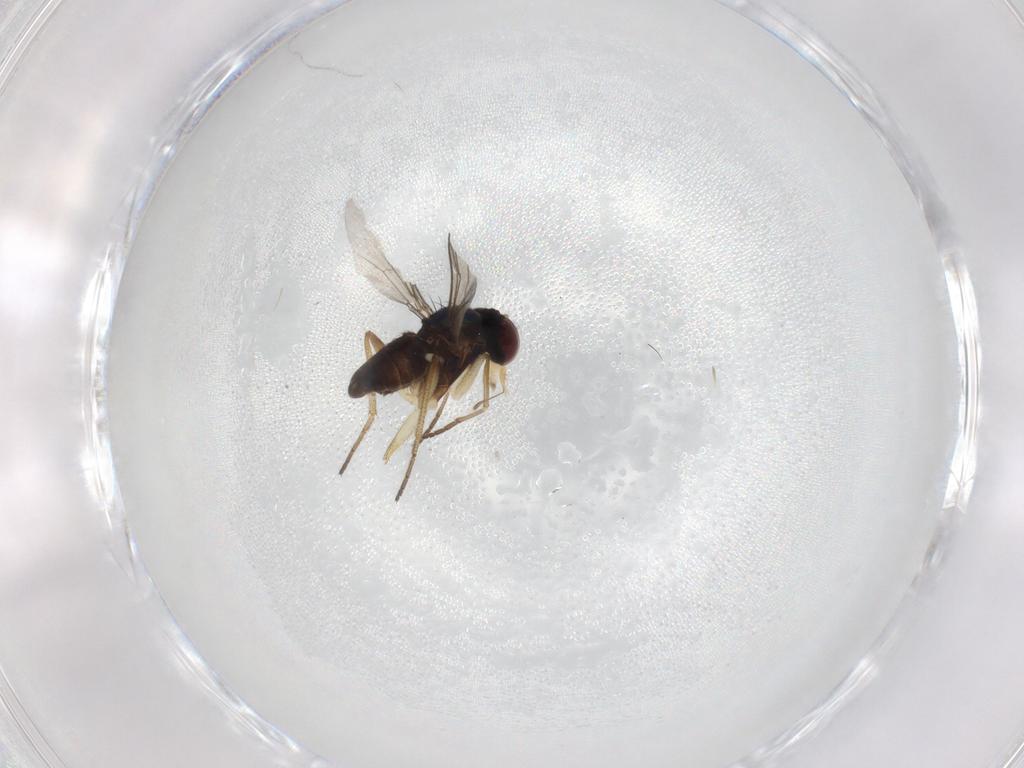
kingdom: Animalia
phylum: Arthropoda
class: Insecta
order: Diptera
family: Dolichopodidae
